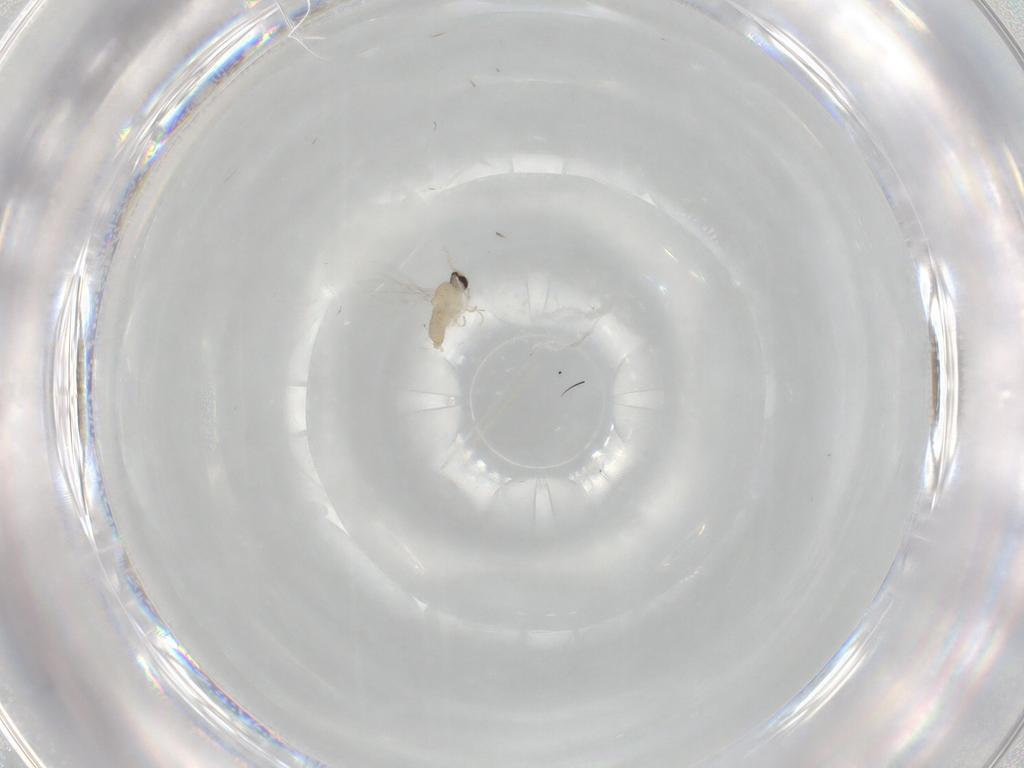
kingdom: Animalia
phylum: Arthropoda
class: Insecta
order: Diptera
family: Cecidomyiidae
